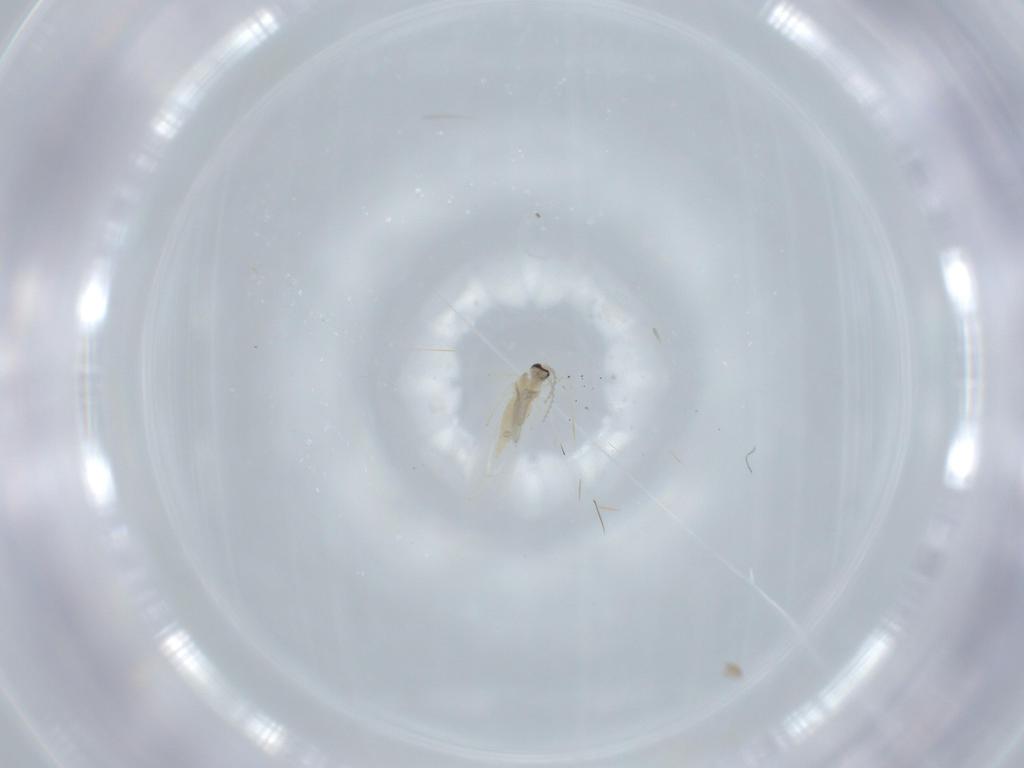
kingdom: Animalia
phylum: Arthropoda
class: Insecta
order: Diptera
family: Cecidomyiidae
